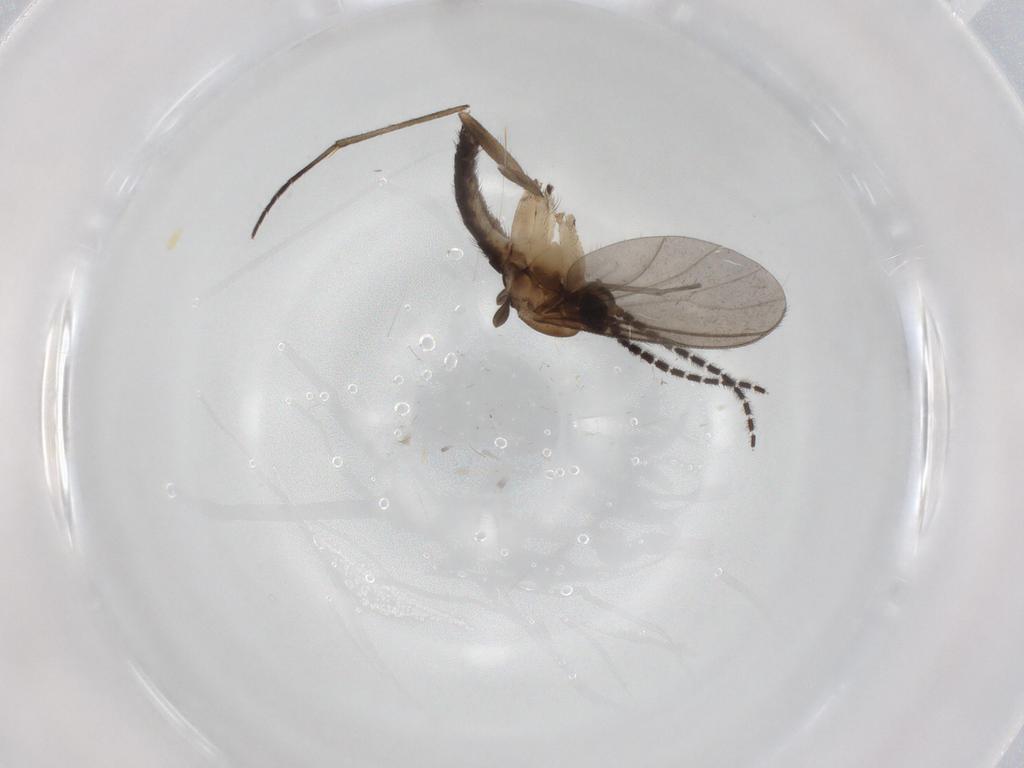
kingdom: Animalia
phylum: Arthropoda
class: Insecta
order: Diptera
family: Sciaridae
